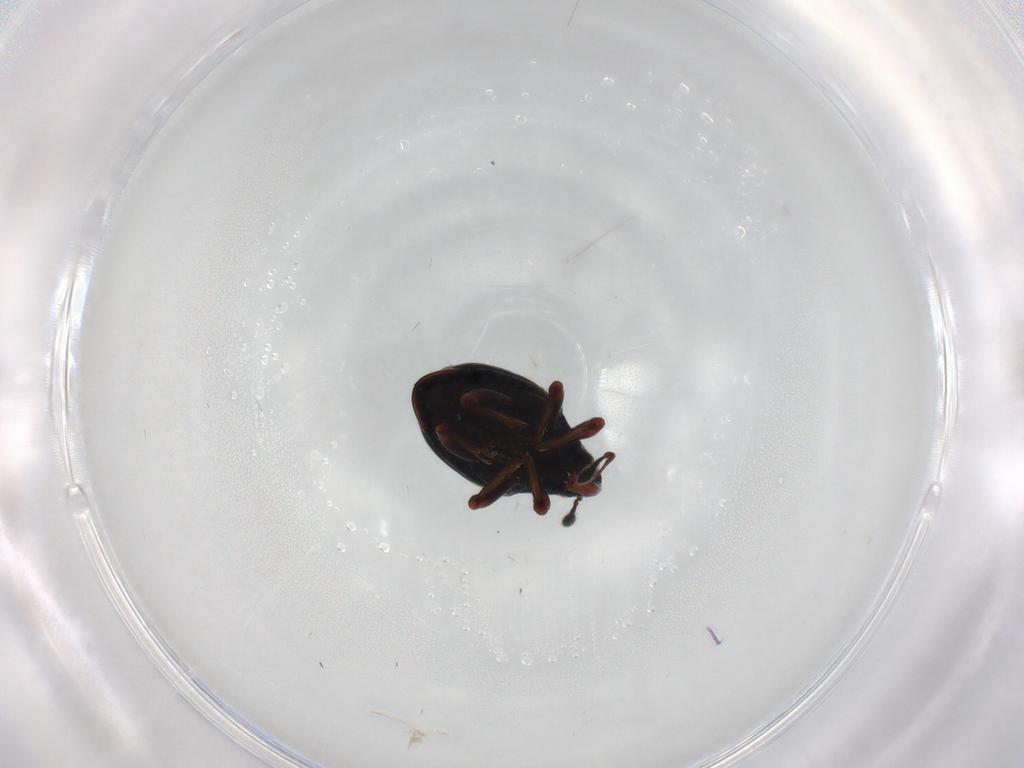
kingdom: Animalia
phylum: Arthropoda
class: Insecta
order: Coleoptera
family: Curculionidae
